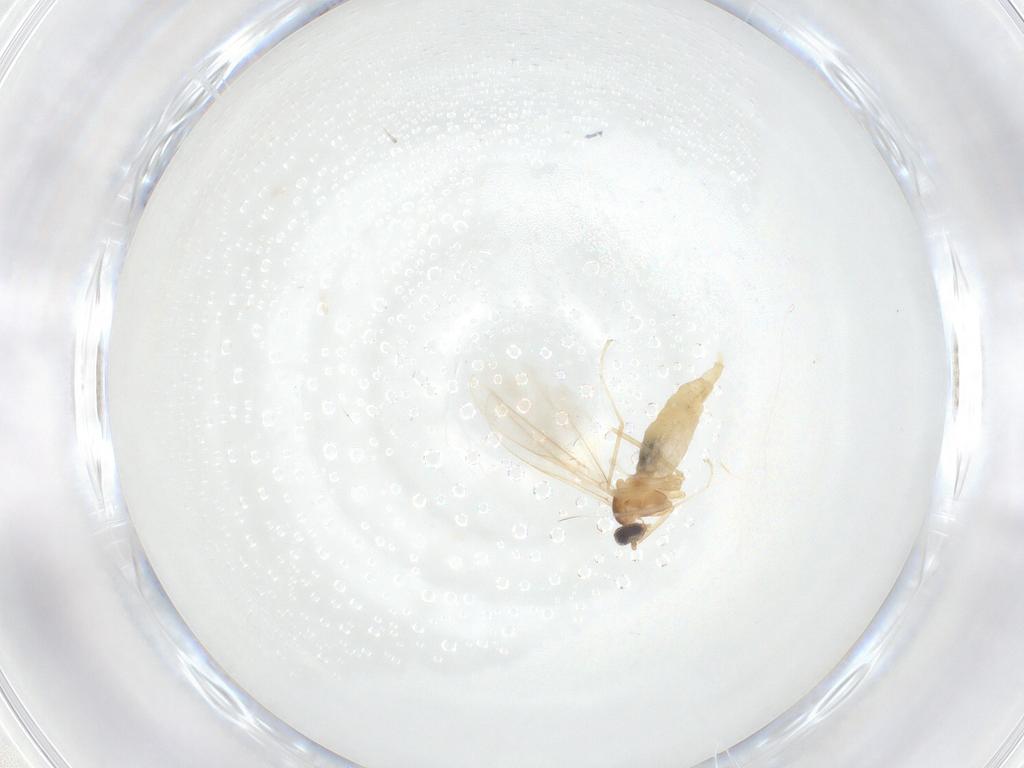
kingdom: Animalia
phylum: Arthropoda
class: Insecta
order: Diptera
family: Cecidomyiidae
